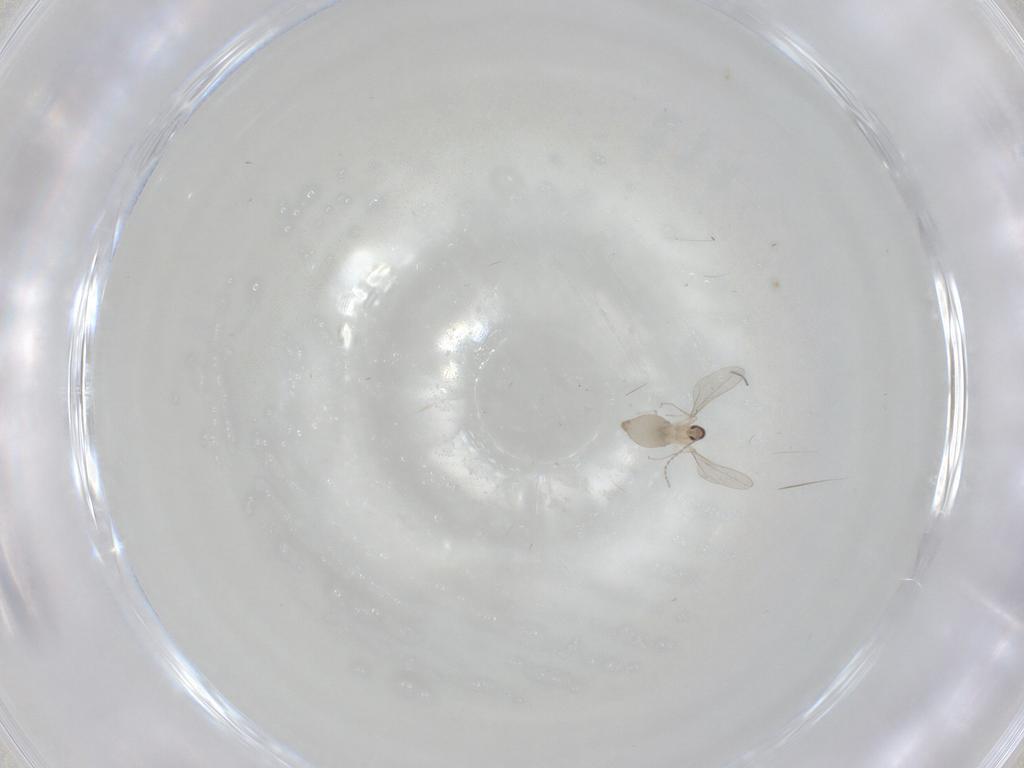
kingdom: Animalia
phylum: Arthropoda
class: Insecta
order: Diptera
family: Cecidomyiidae
